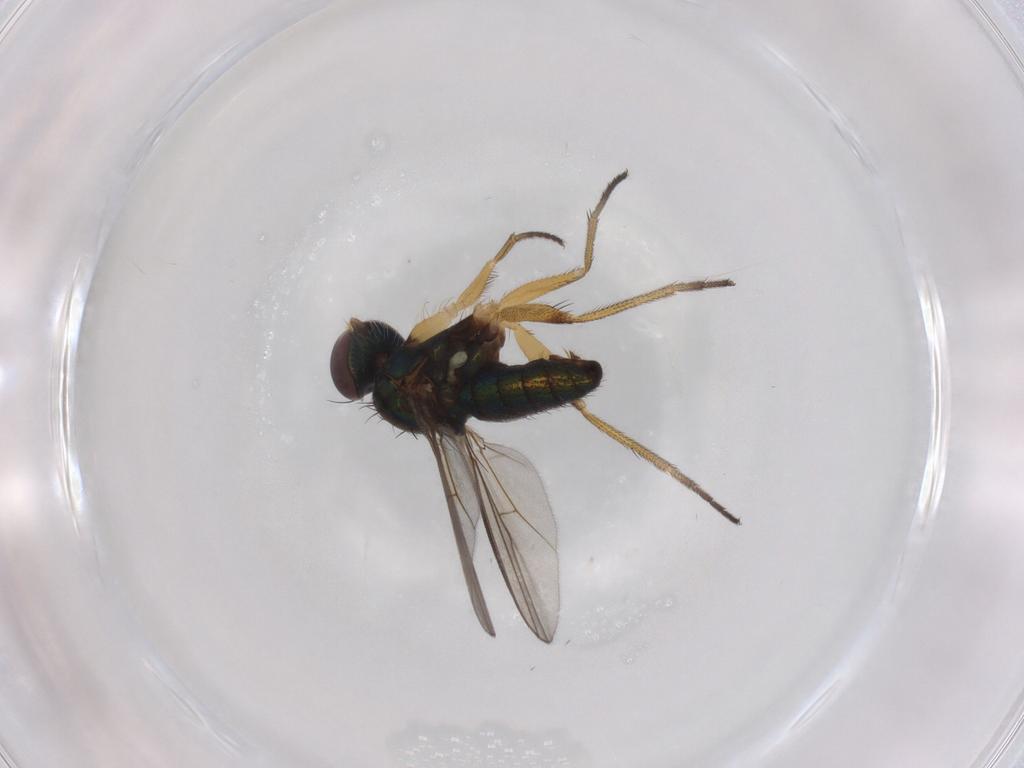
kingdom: Animalia
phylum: Arthropoda
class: Insecta
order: Diptera
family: Dolichopodidae
